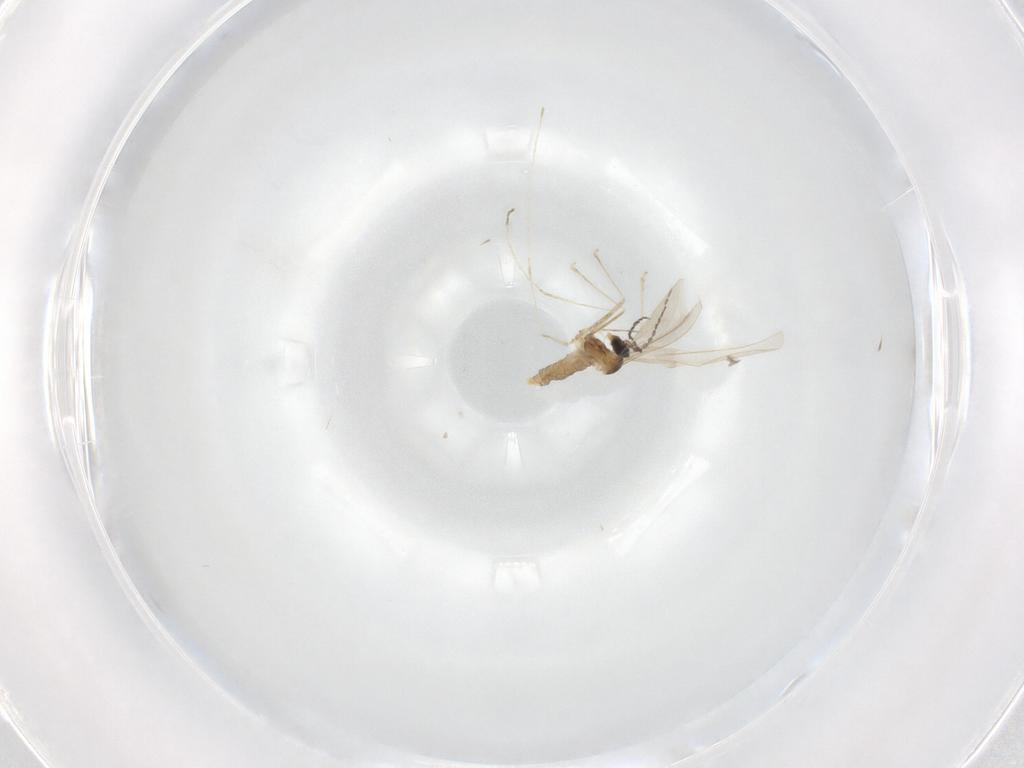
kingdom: Animalia
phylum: Arthropoda
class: Insecta
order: Diptera
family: Cecidomyiidae
